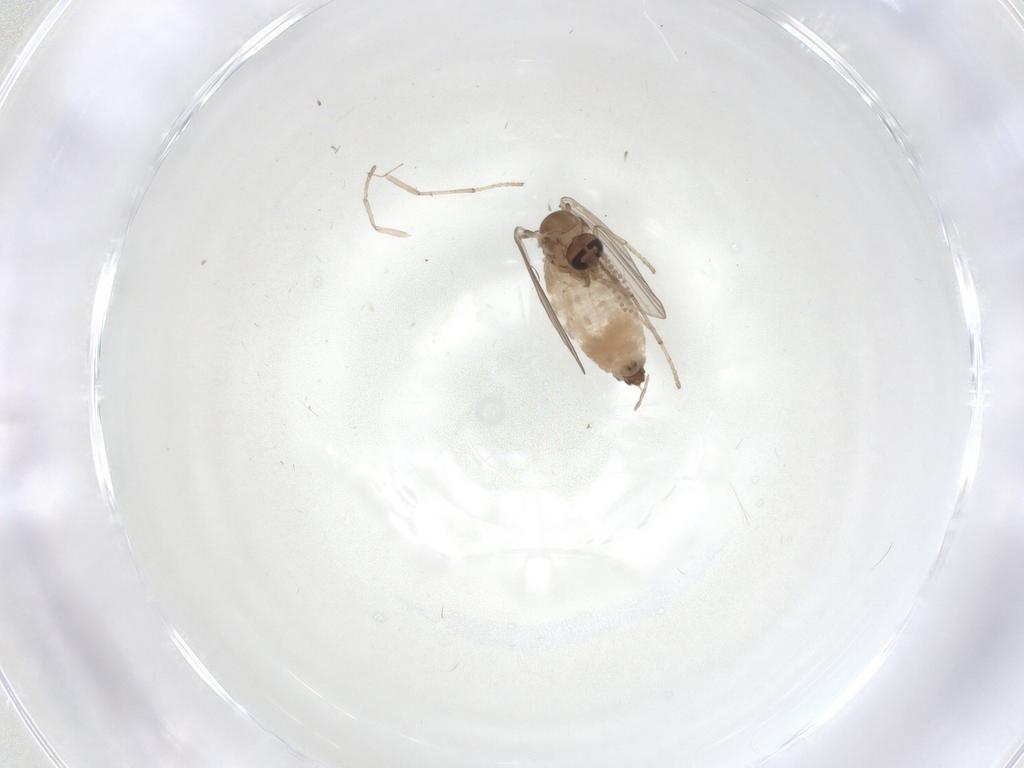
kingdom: Animalia
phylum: Arthropoda
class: Insecta
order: Diptera
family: Psychodidae
